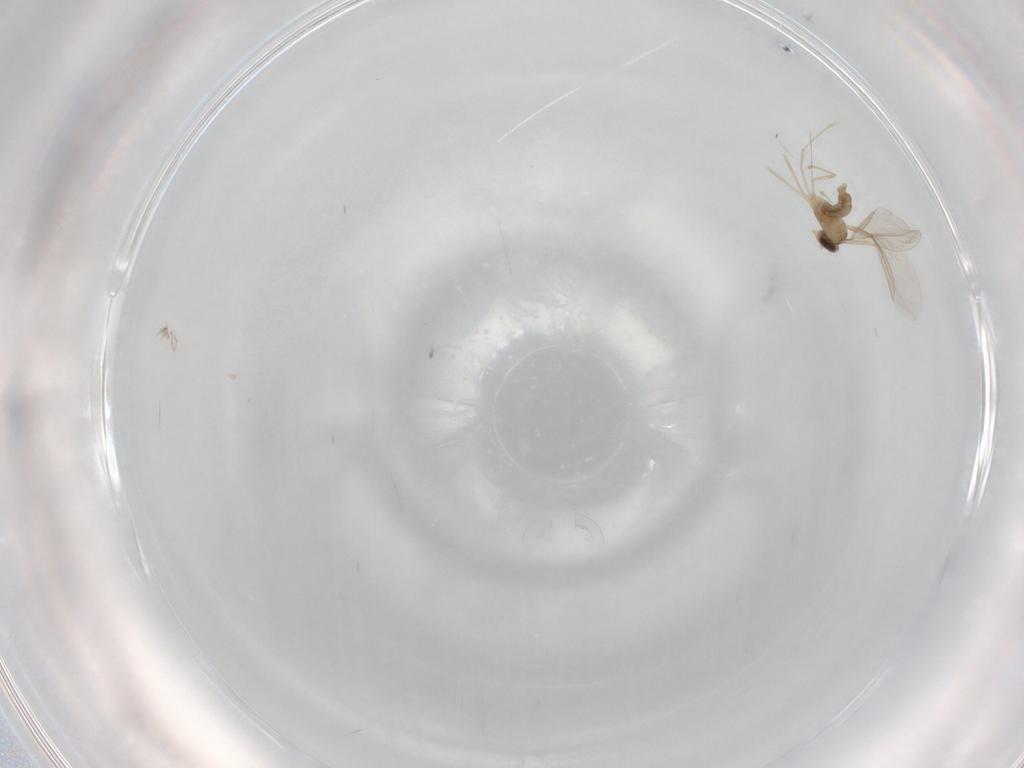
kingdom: Animalia
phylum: Arthropoda
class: Insecta
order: Diptera
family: Cecidomyiidae
